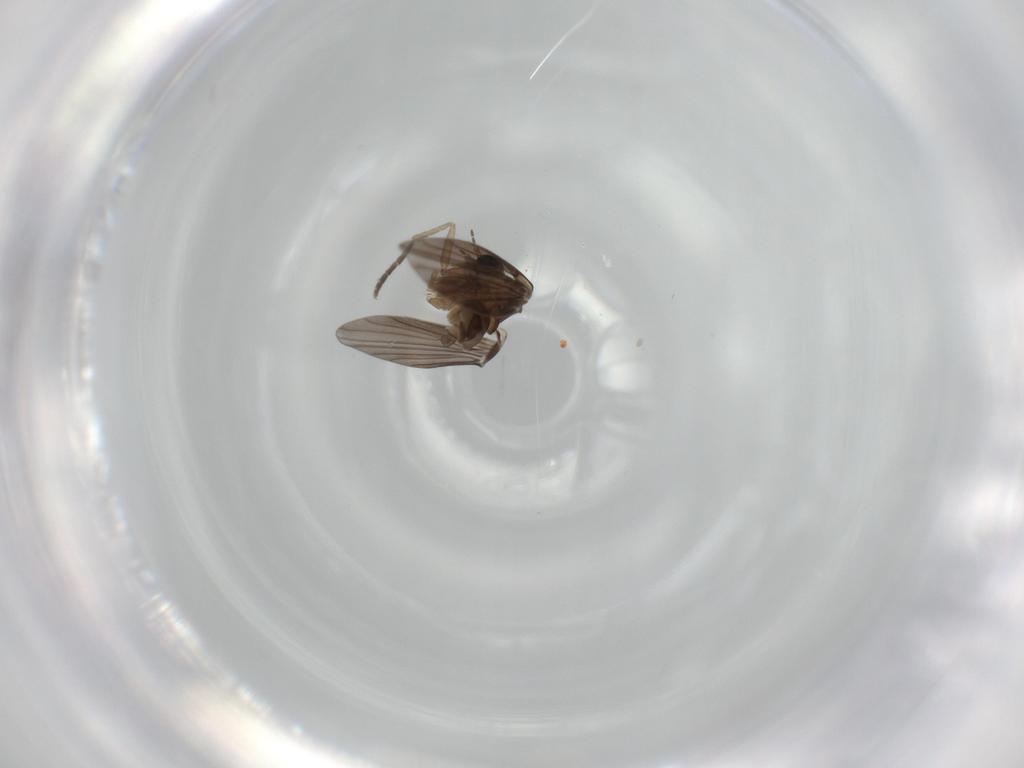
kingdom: Animalia
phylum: Arthropoda
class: Insecta
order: Diptera
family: Psychodidae
